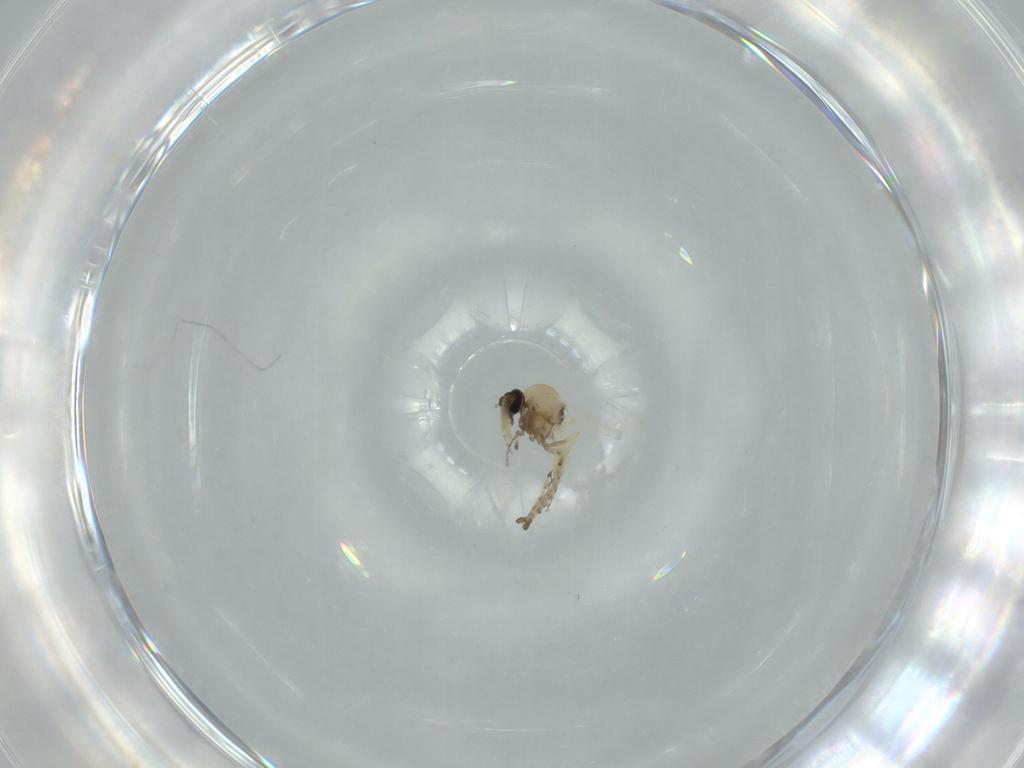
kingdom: Animalia
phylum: Arthropoda
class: Insecta
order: Diptera
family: Ceratopogonidae
